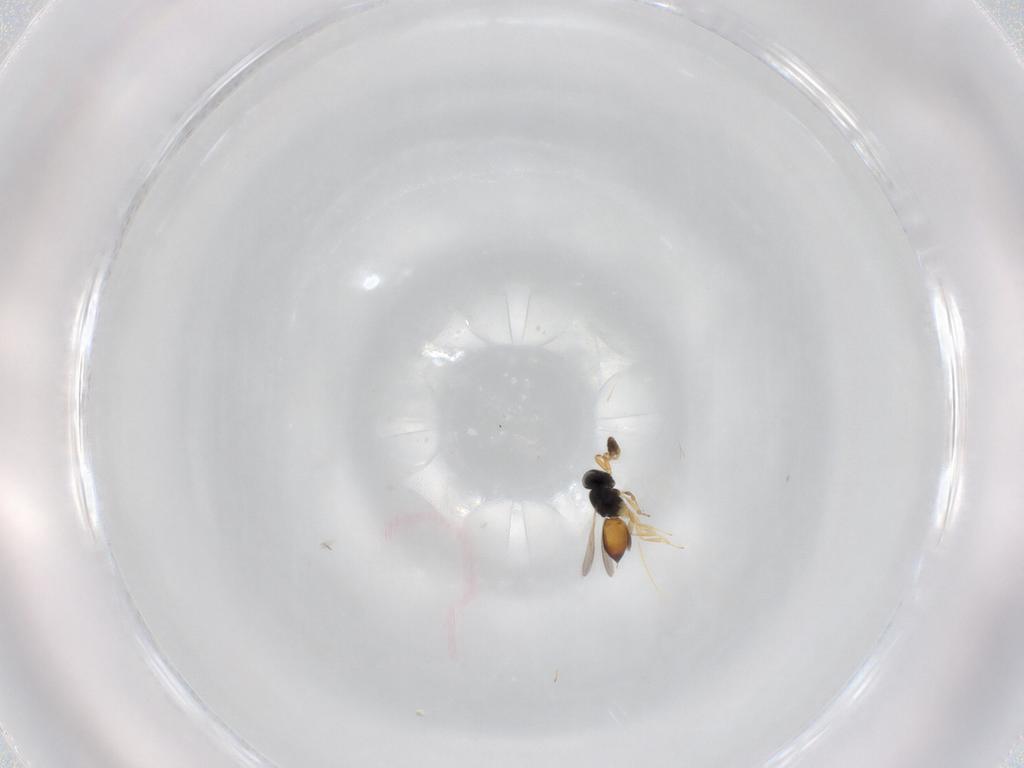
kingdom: Animalia
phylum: Arthropoda
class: Insecta
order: Hymenoptera
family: Scelionidae
